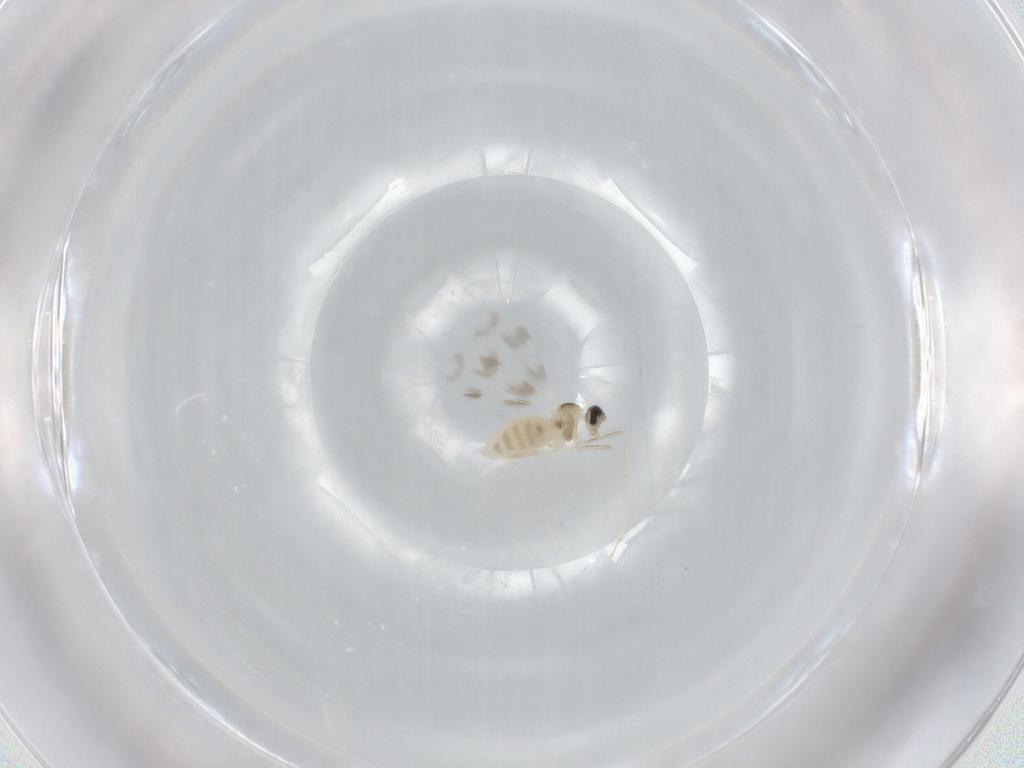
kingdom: Animalia
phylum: Arthropoda
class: Insecta
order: Diptera
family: Cecidomyiidae
